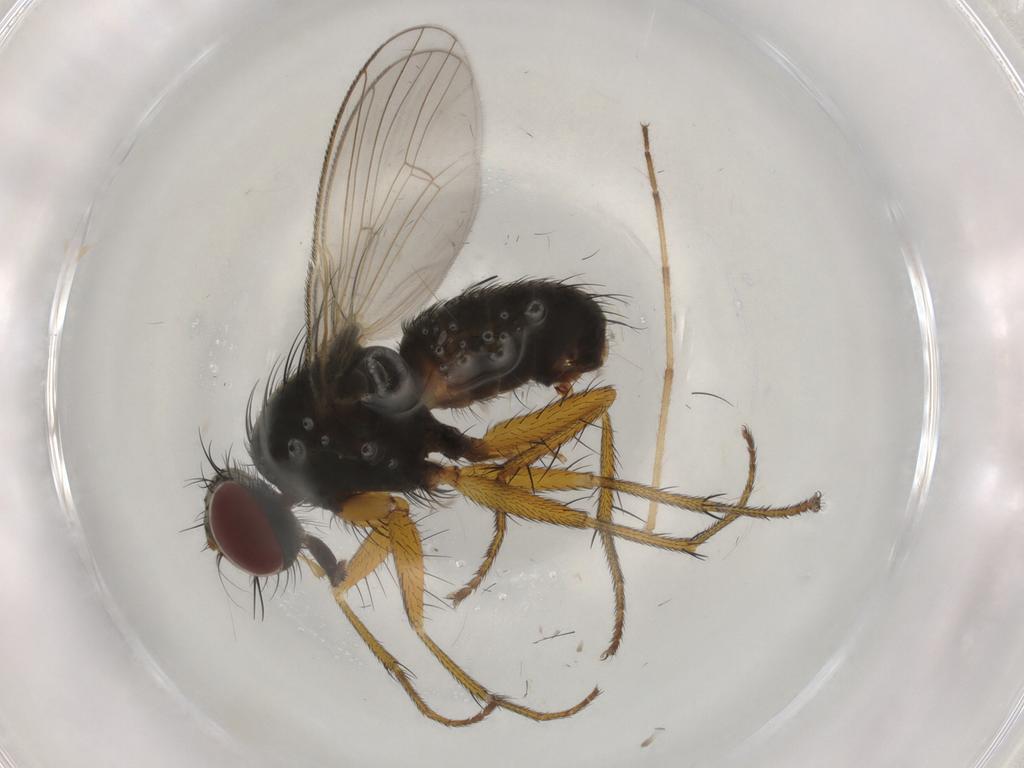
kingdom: Animalia
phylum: Arthropoda
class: Insecta
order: Diptera
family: Muscidae
